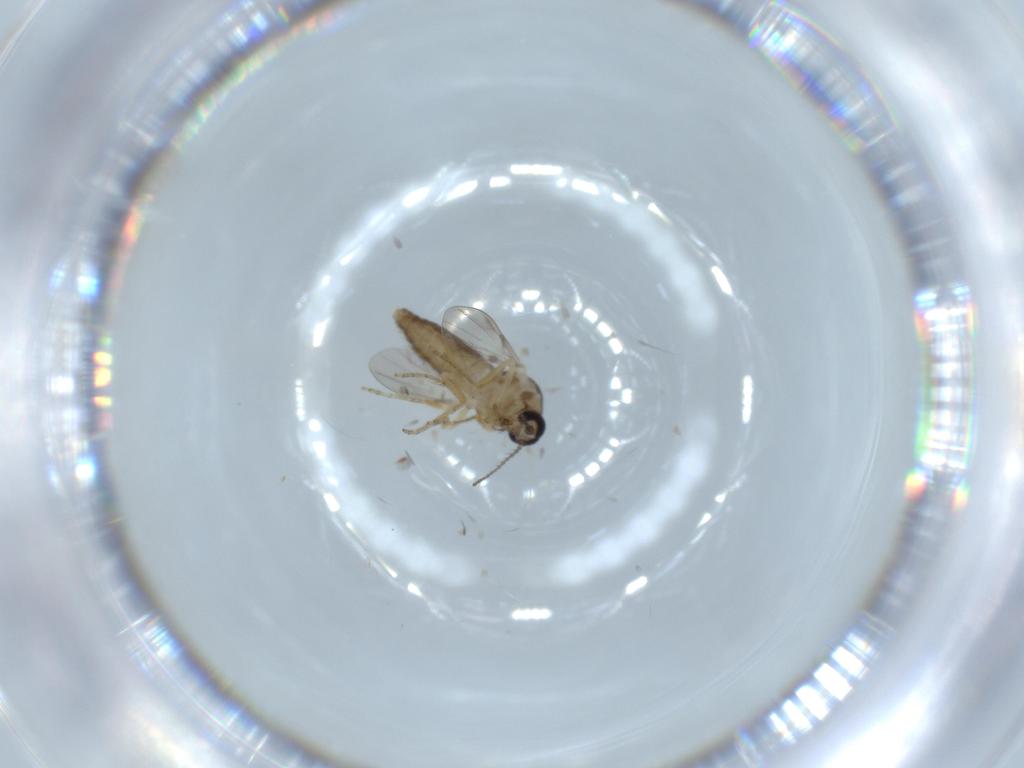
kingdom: Animalia
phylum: Arthropoda
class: Insecta
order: Diptera
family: Ceratopogonidae
